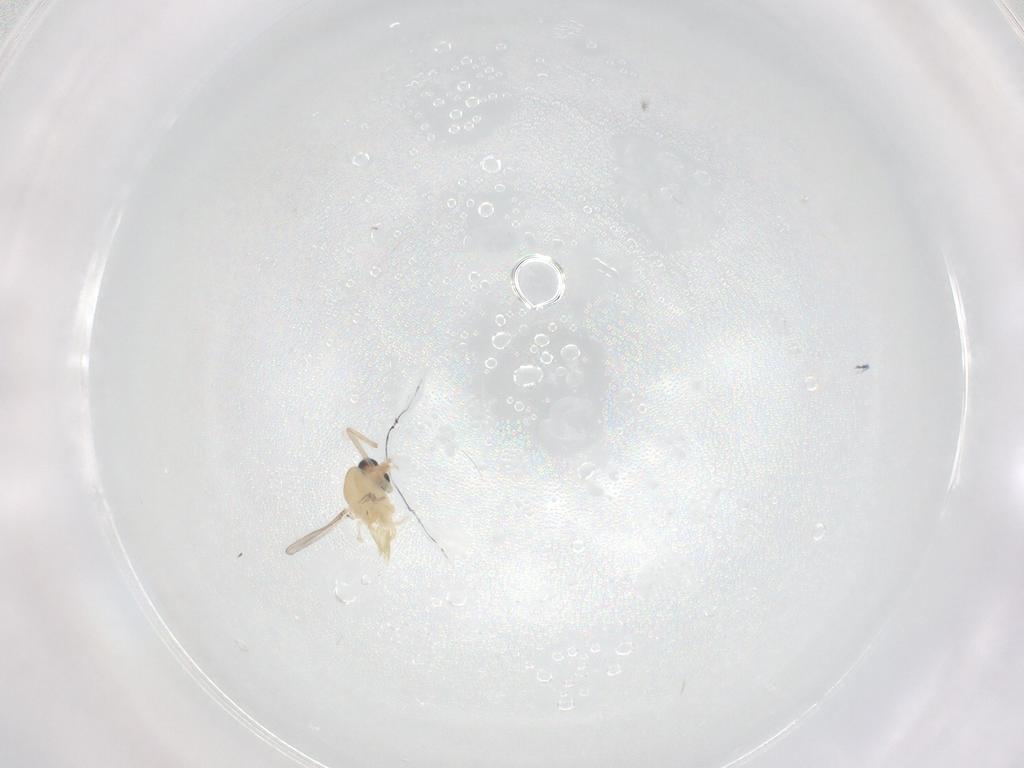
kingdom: Animalia
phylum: Arthropoda
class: Insecta
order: Diptera
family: Chironomidae
